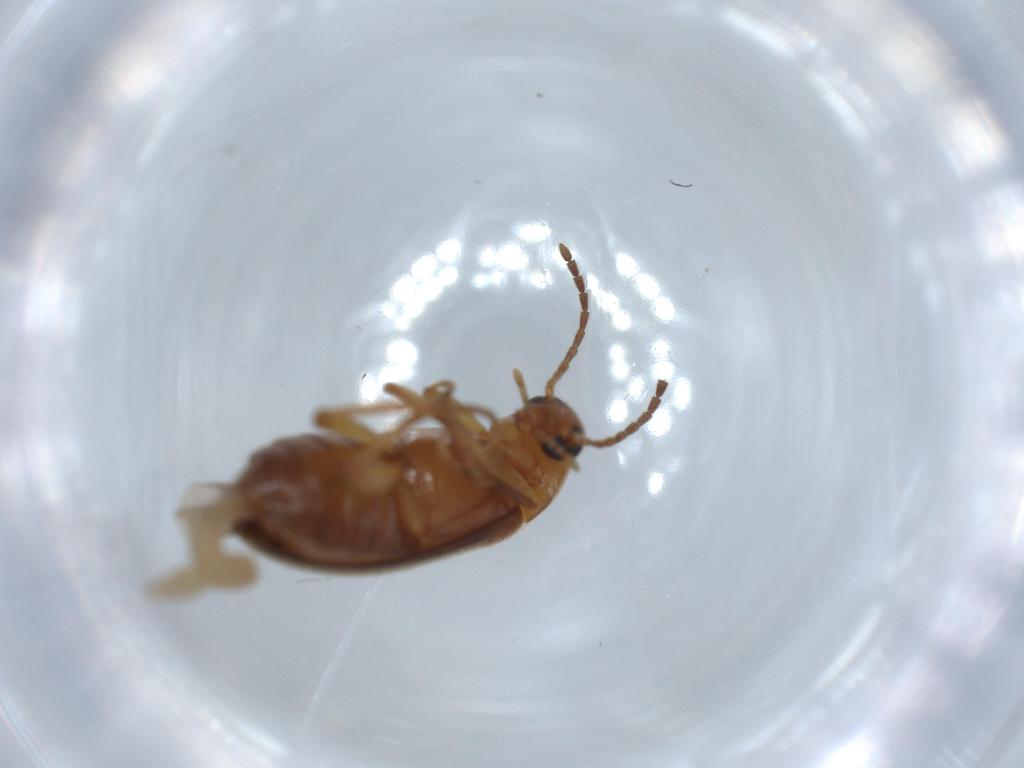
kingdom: Animalia
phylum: Arthropoda
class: Insecta
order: Coleoptera
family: Scraptiidae
